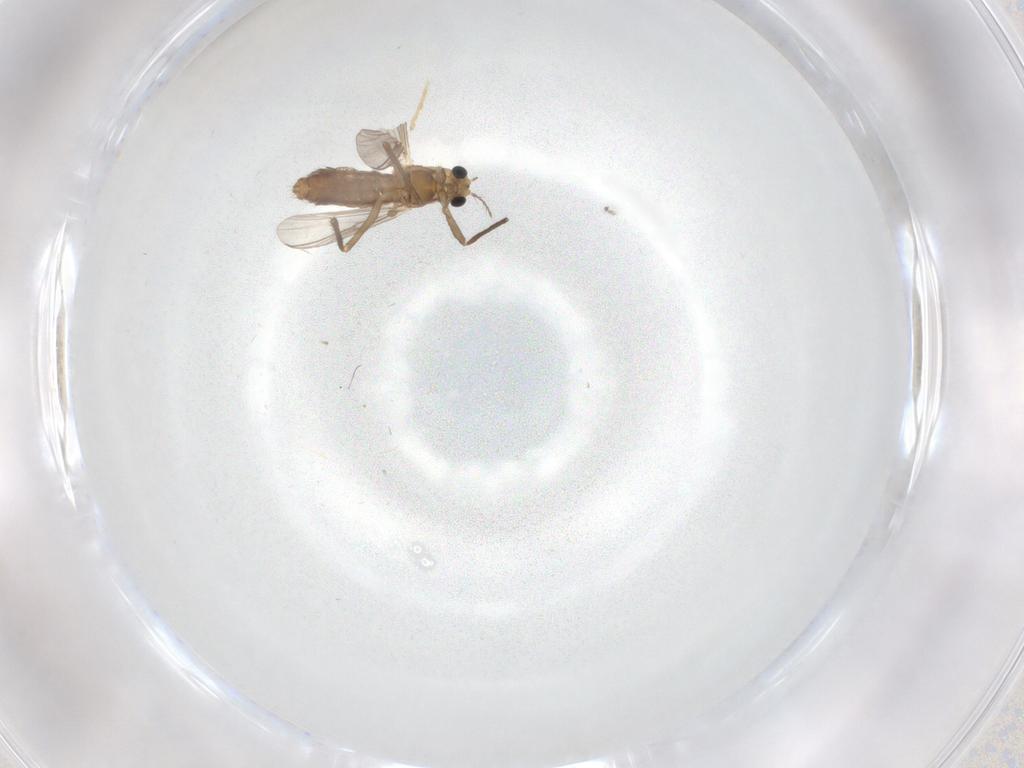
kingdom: Animalia
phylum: Arthropoda
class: Insecta
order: Diptera
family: Chironomidae
